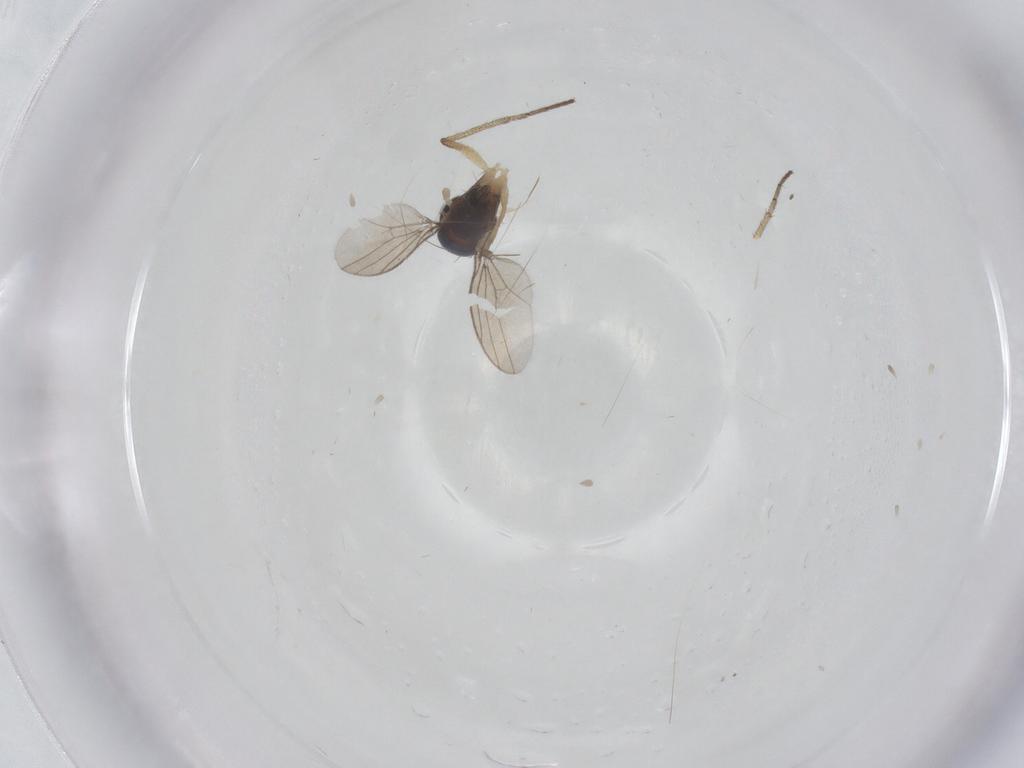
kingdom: Animalia
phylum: Arthropoda
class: Insecta
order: Diptera
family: Dolichopodidae
